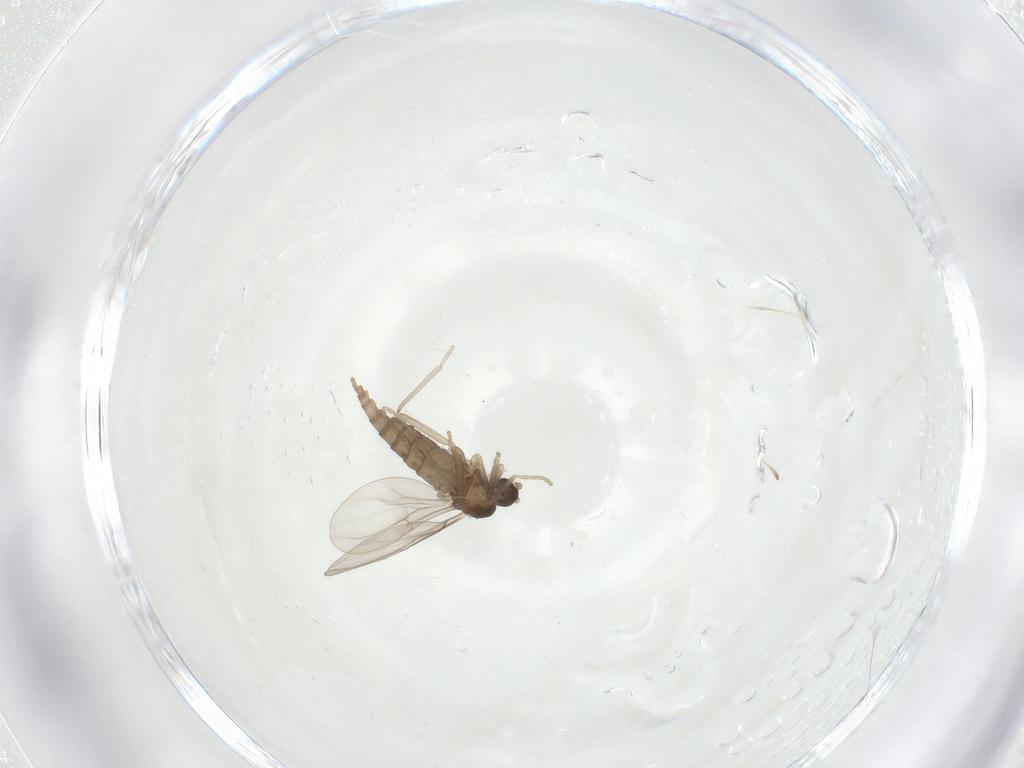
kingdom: Animalia
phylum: Arthropoda
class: Insecta
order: Diptera
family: Cecidomyiidae
